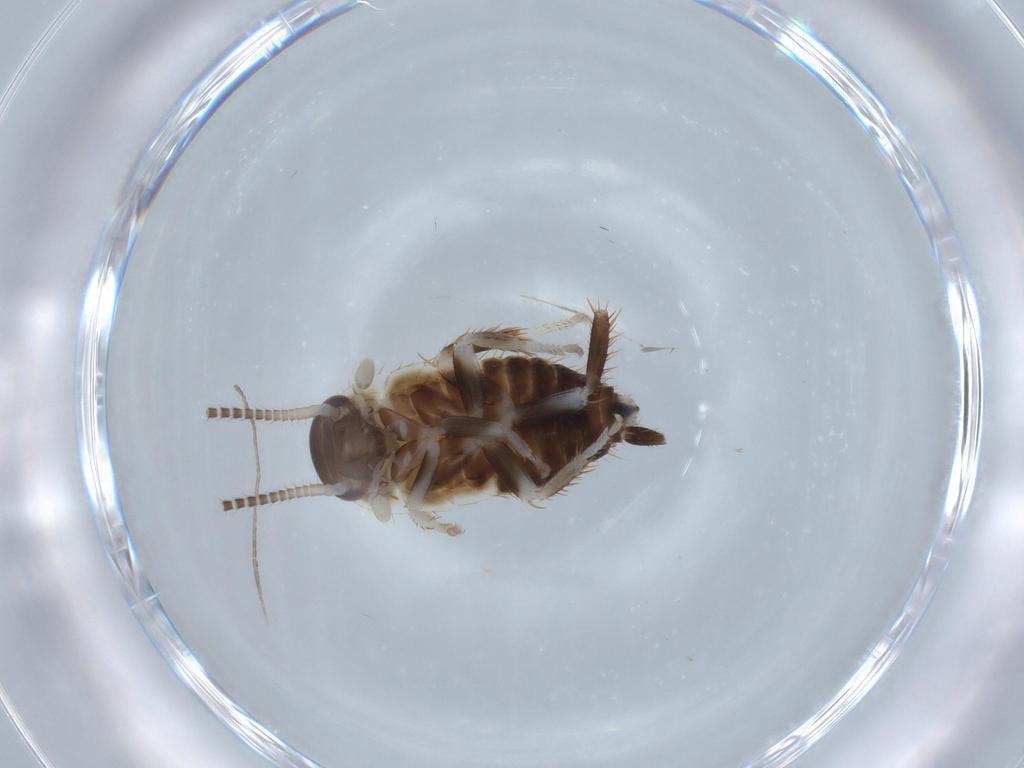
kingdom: Animalia
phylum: Arthropoda
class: Insecta
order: Blattodea
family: Ectobiidae
